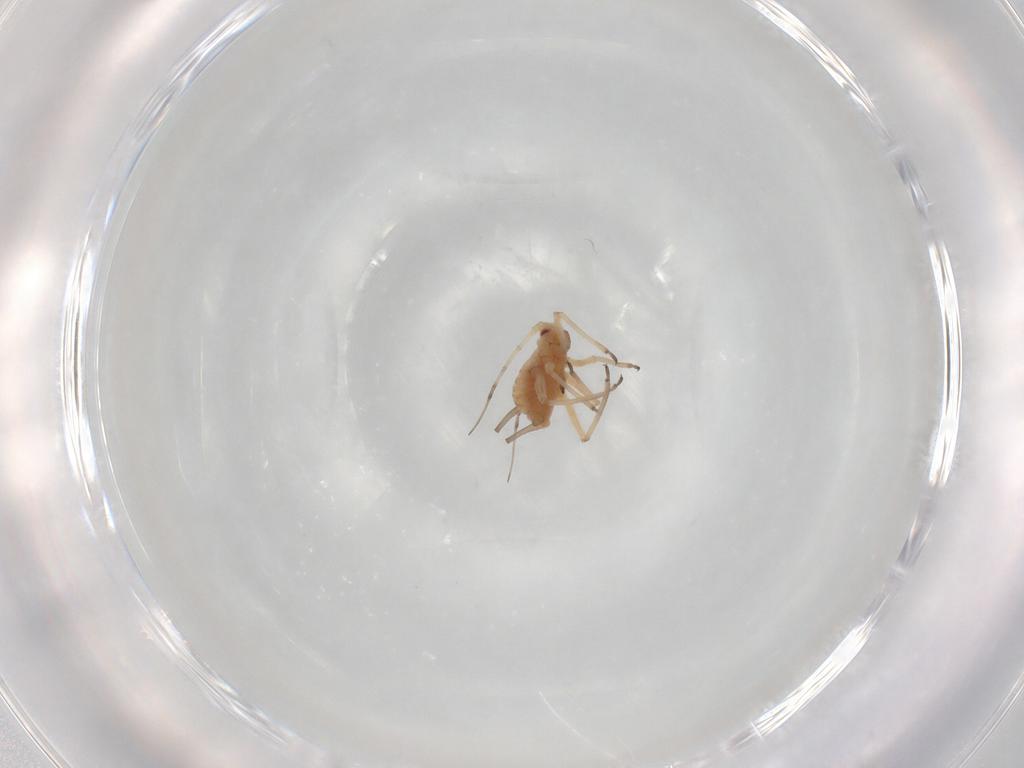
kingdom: Animalia
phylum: Arthropoda
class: Insecta
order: Hemiptera
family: Aphididae
